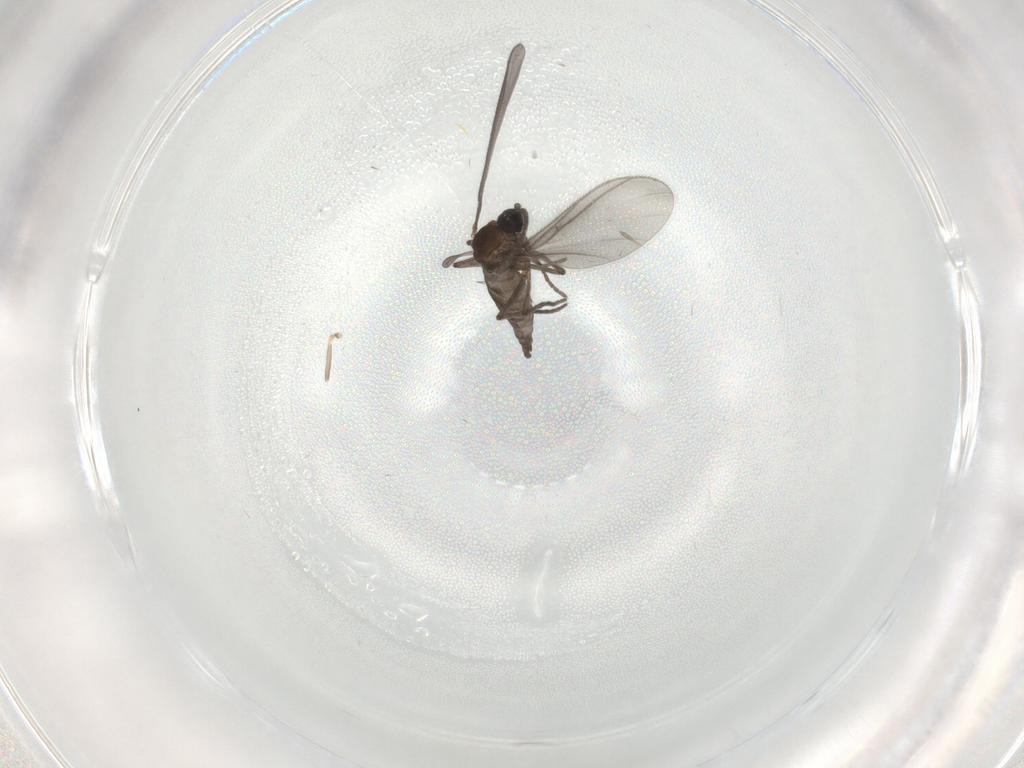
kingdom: Animalia
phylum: Arthropoda
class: Insecta
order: Diptera
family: Sciaridae
